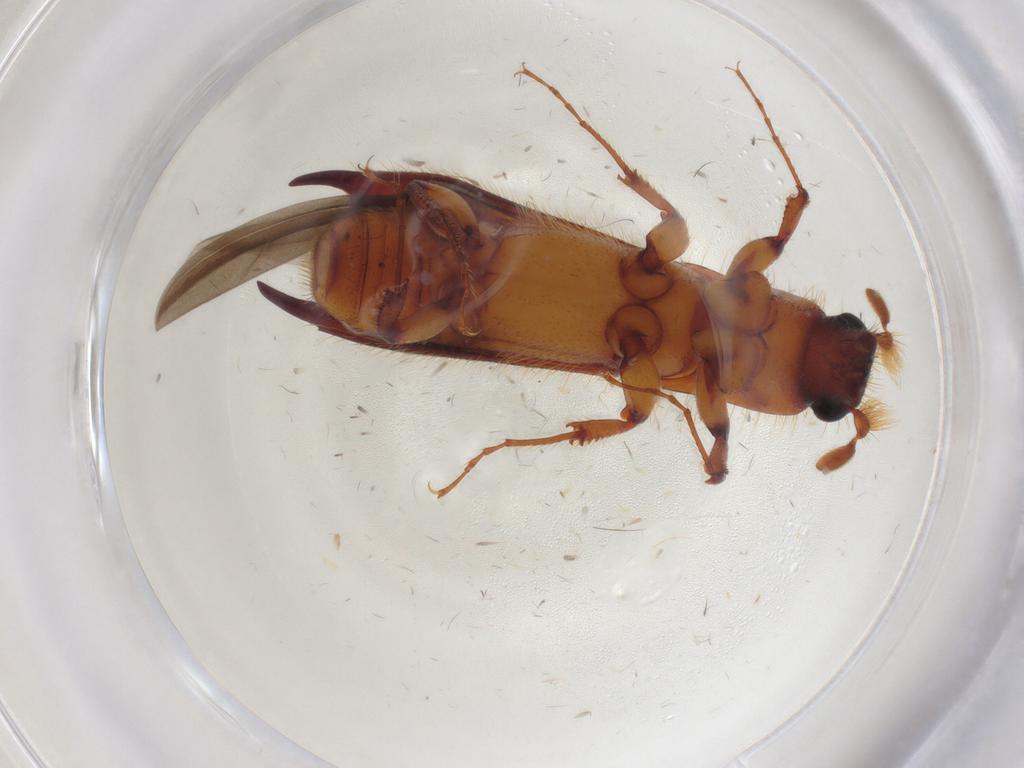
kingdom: Animalia
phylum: Arthropoda
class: Insecta
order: Coleoptera
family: Curculionidae
